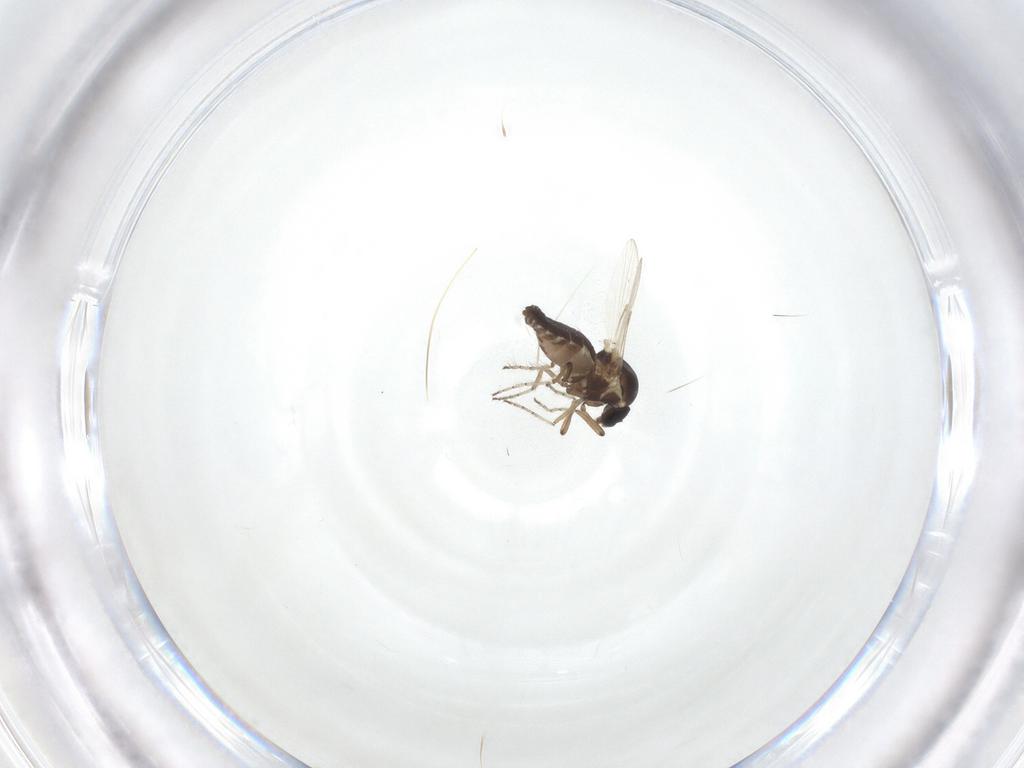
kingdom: Animalia
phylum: Arthropoda
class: Insecta
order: Diptera
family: Ceratopogonidae
